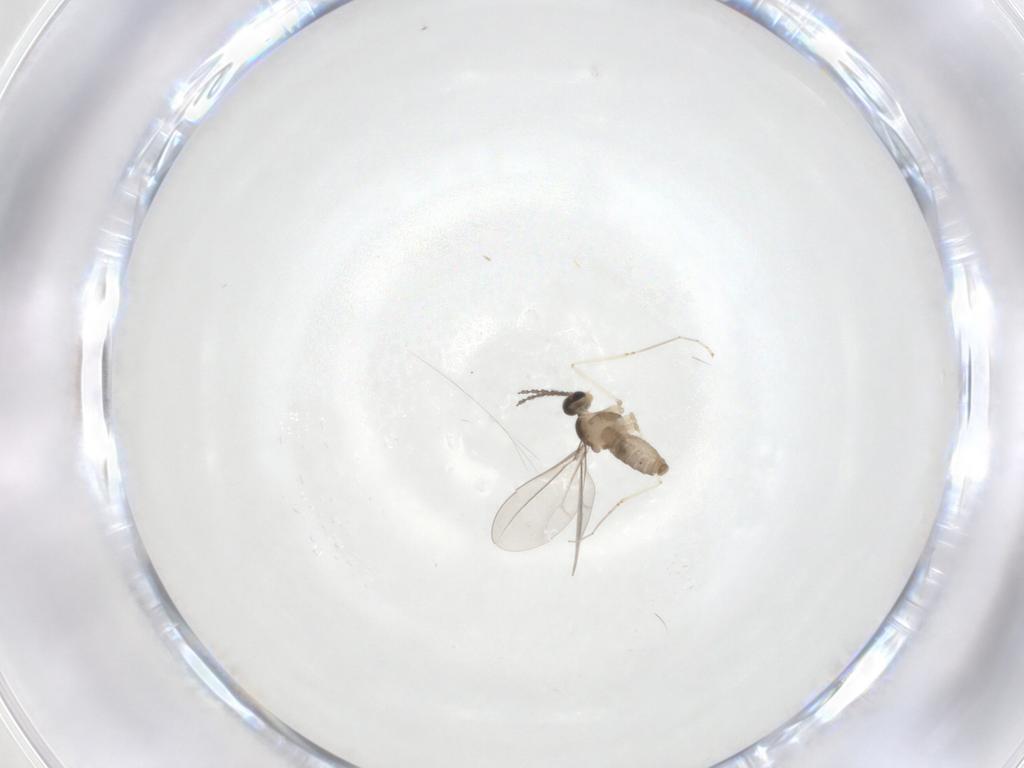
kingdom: Animalia
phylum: Arthropoda
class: Insecta
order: Diptera
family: Cecidomyiidae
